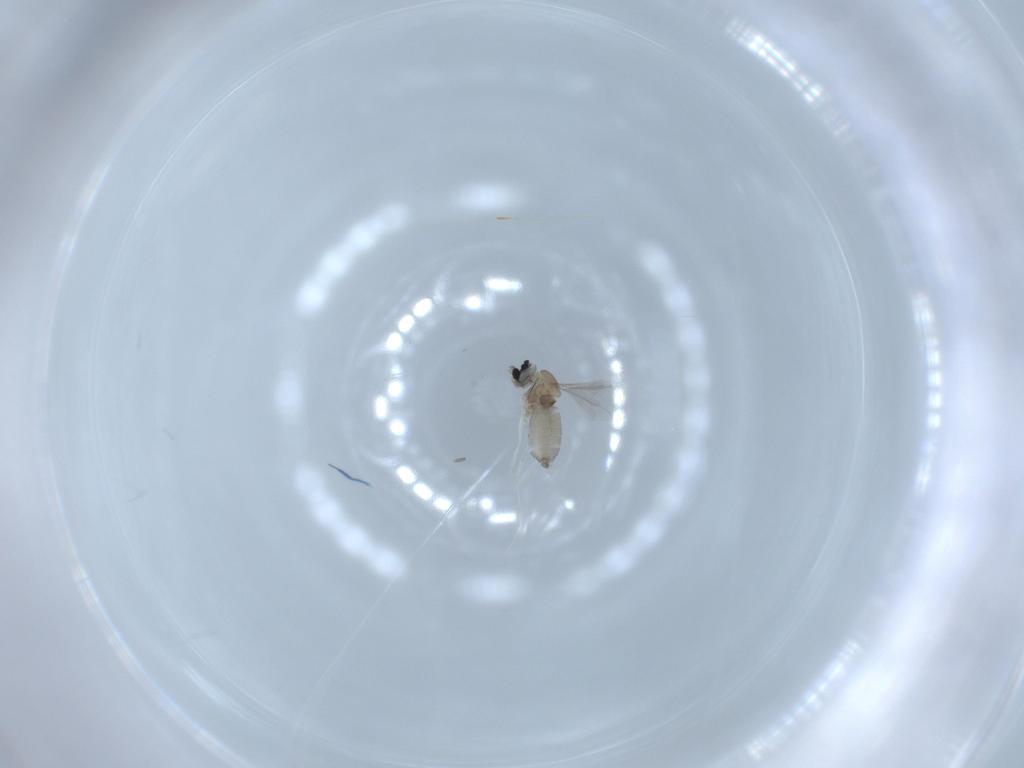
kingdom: Animalia
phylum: Arthropoda
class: Insecta
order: Diptera
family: Cecidomyiidae
